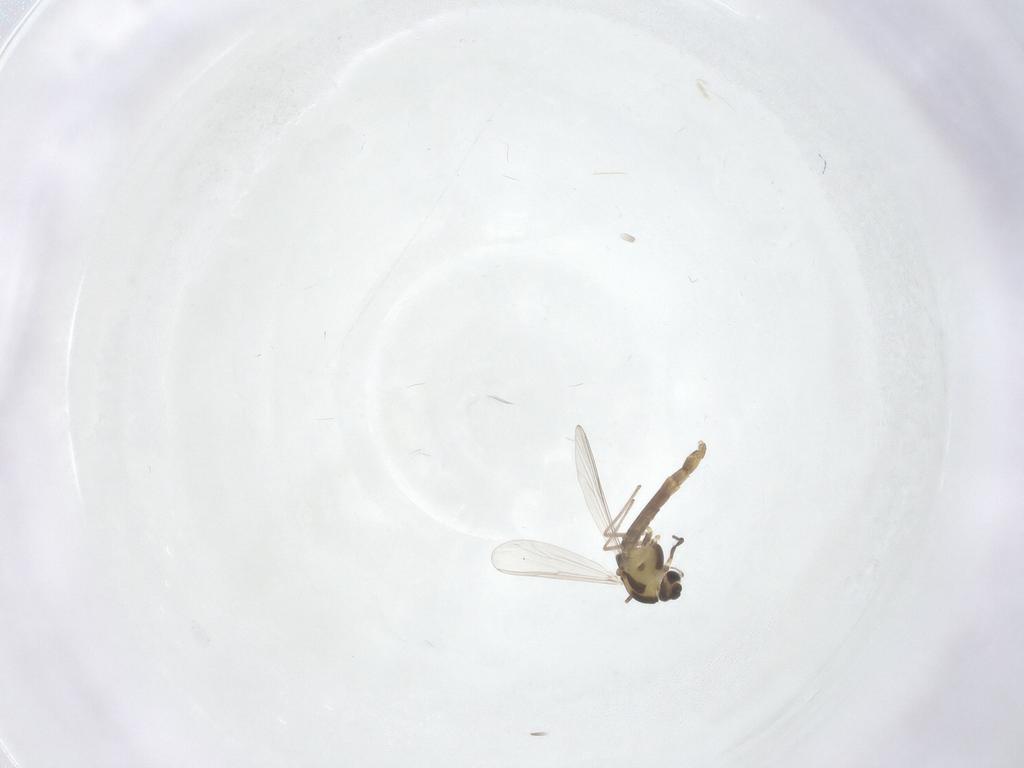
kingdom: Animalia
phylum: Arthropoda
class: Insecta
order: Diptera
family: Chironomidae
